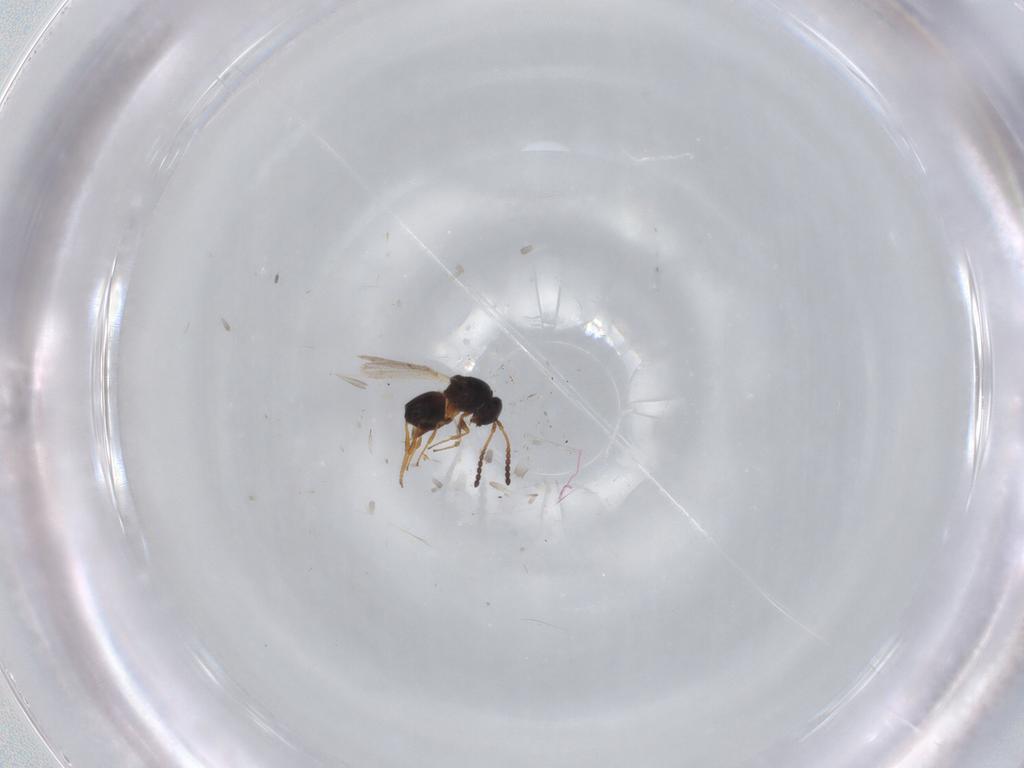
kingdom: Animalia
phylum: Arthropoda
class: Insecta
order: Hymenoptera
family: Figitidae
